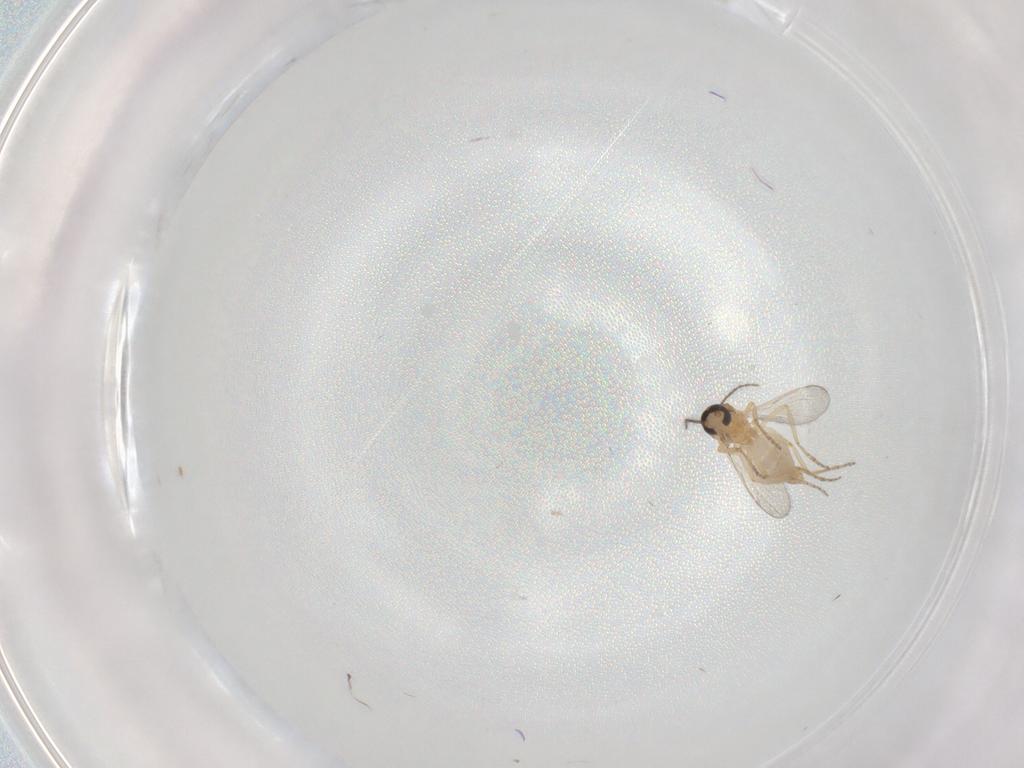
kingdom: Animalia
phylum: Arthropoda
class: Insecta
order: Diptera
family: Ceratopogonidae
